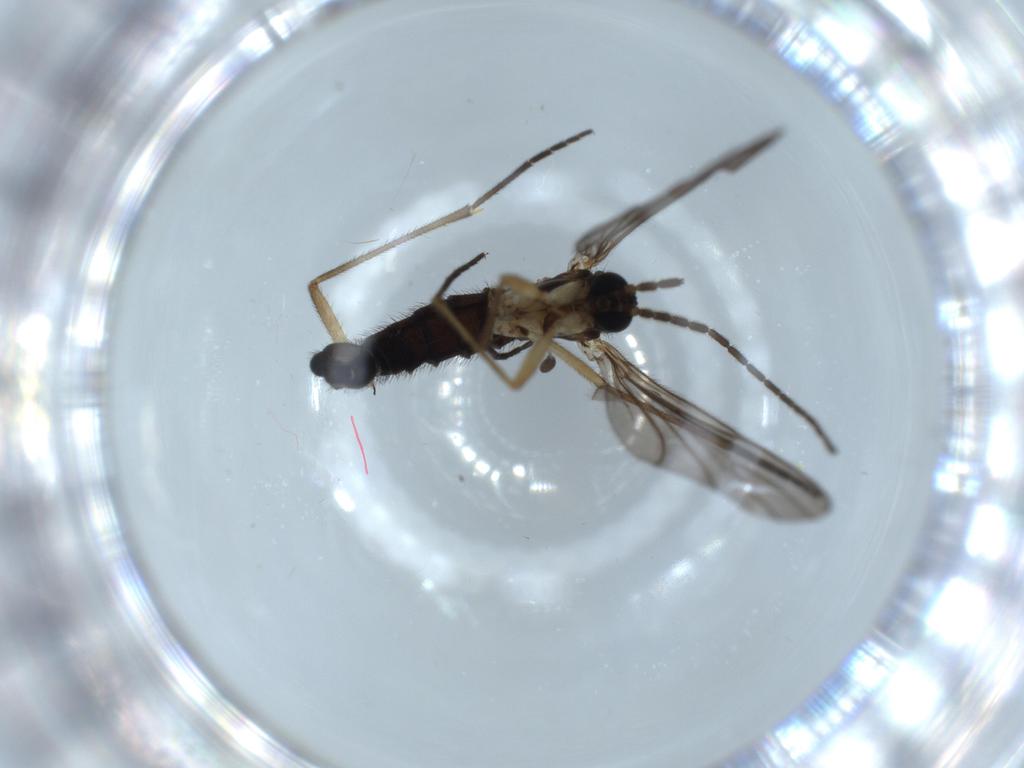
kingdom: Animalia
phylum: Arthropoda
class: Insecta
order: Diptera
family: Sciaridae
